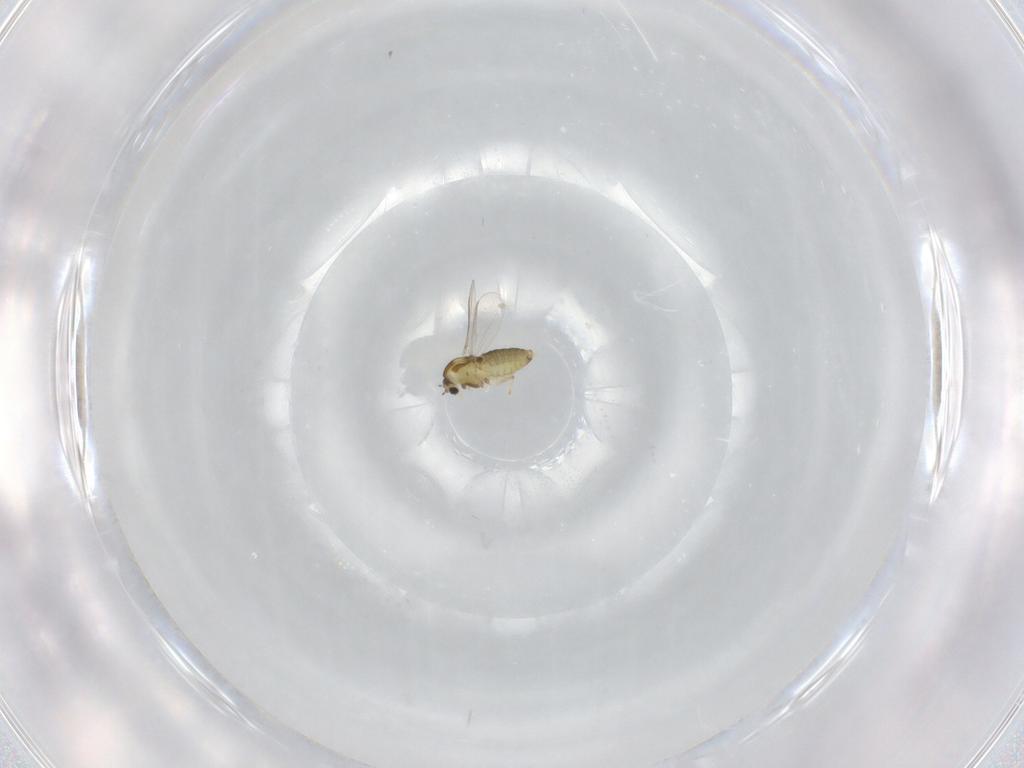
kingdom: Animalia
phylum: Arthropoda
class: Insecta
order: Diptera
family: Chironomidae
